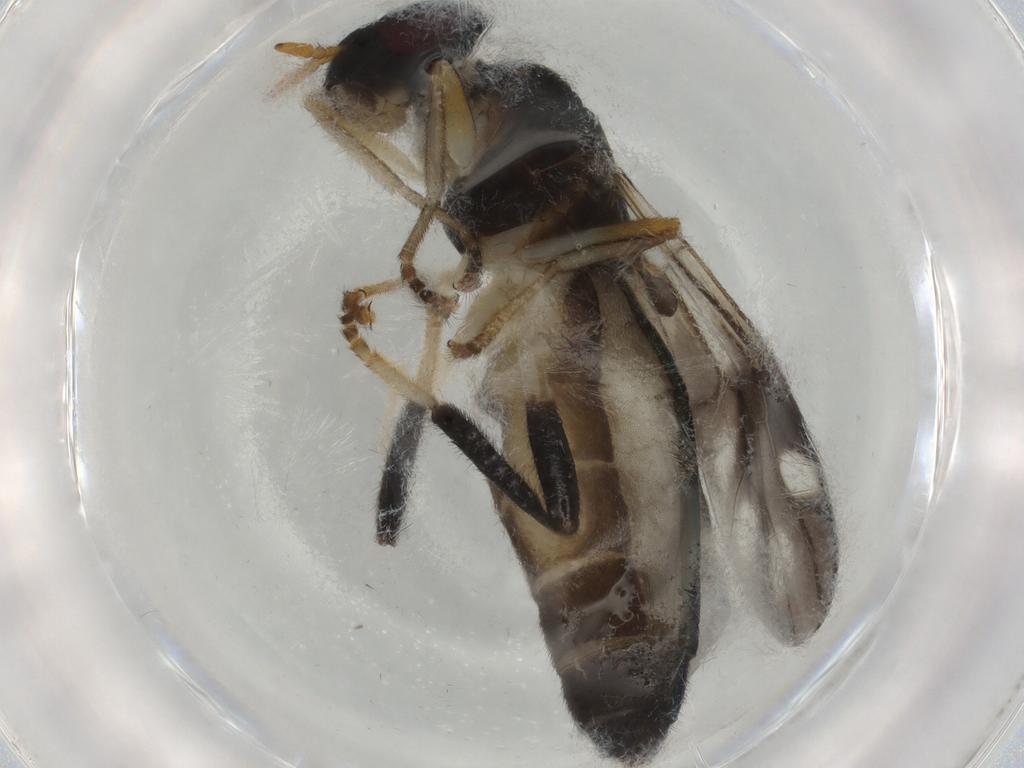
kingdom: Animalia
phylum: Arthropoda
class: Insecta
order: Diptera
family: Stratiomyidae
